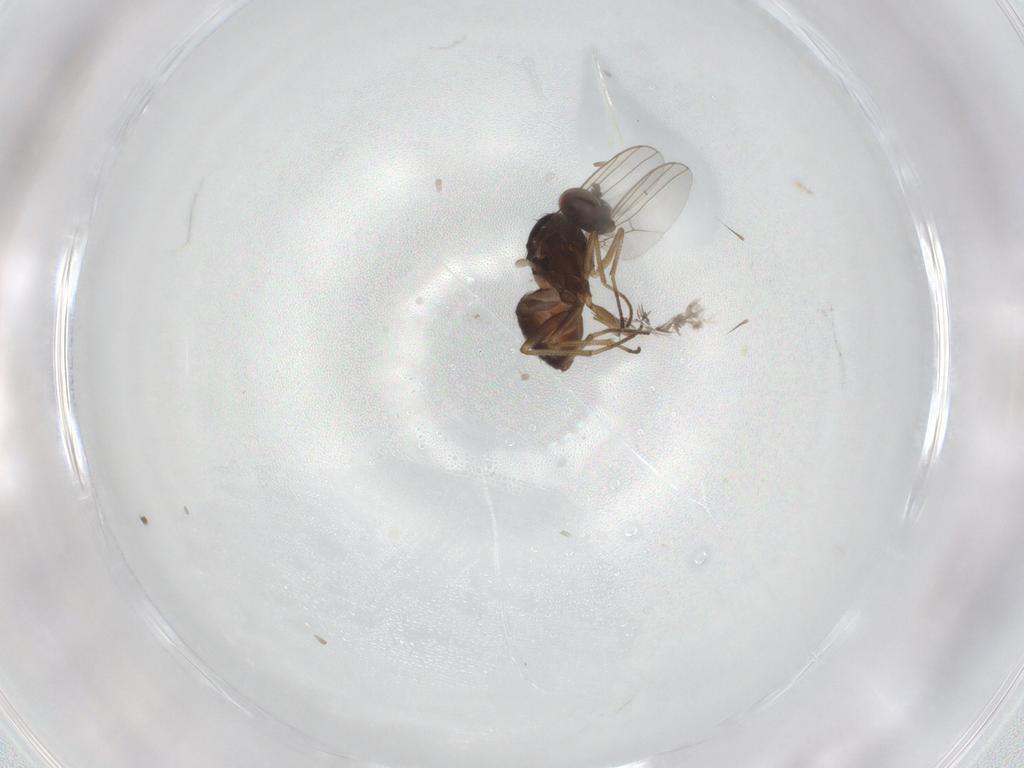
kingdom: Animalia
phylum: Arthropoda
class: Insecta
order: Diptera
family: Dolichopodidae
